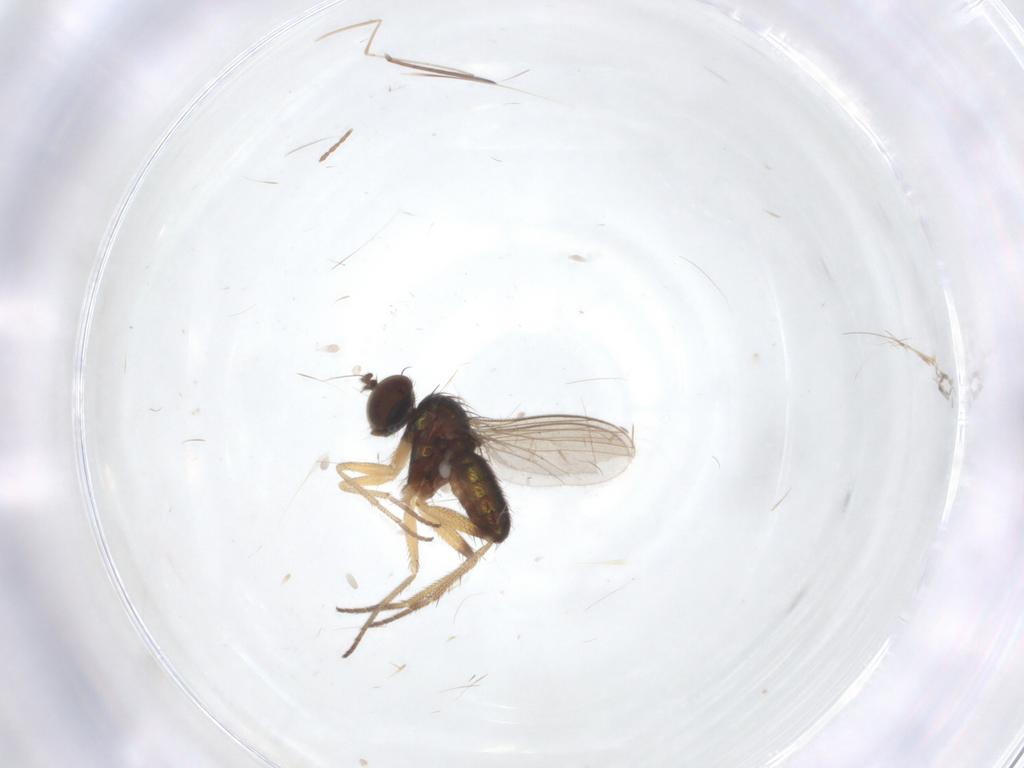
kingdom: Animalia
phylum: Arthropoda
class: Insecta
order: Diptera
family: Cecidomyiidae
